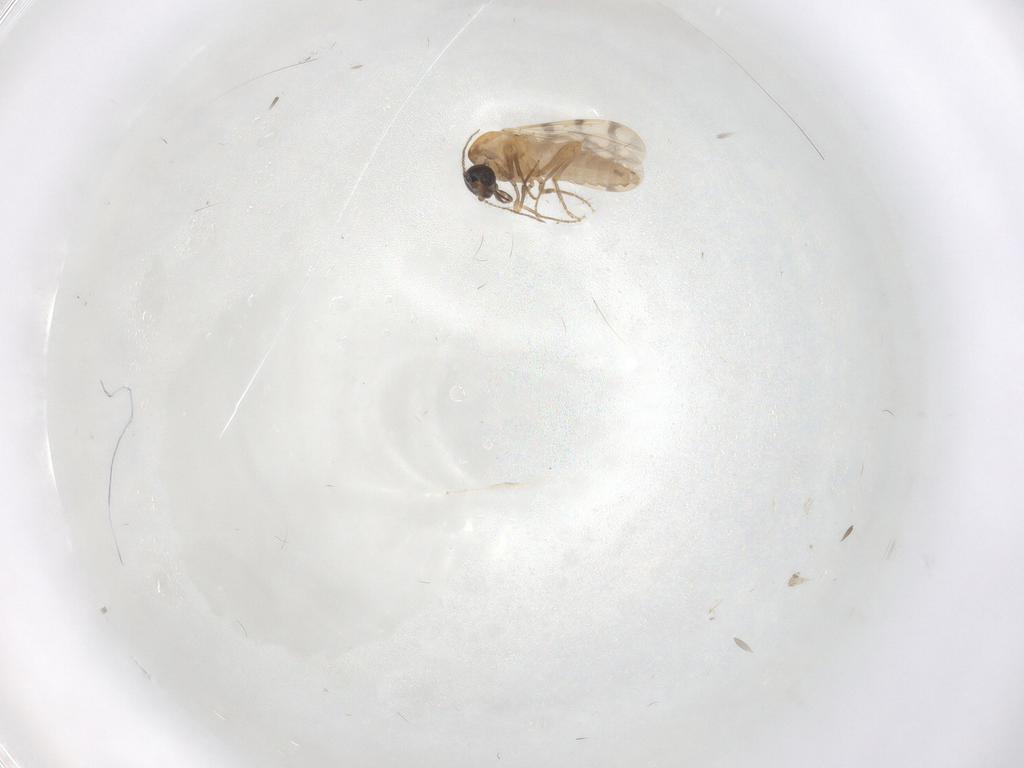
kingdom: Animalia
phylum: Arthropoda
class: Insecta
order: Diptera
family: Ceratopogonidae
